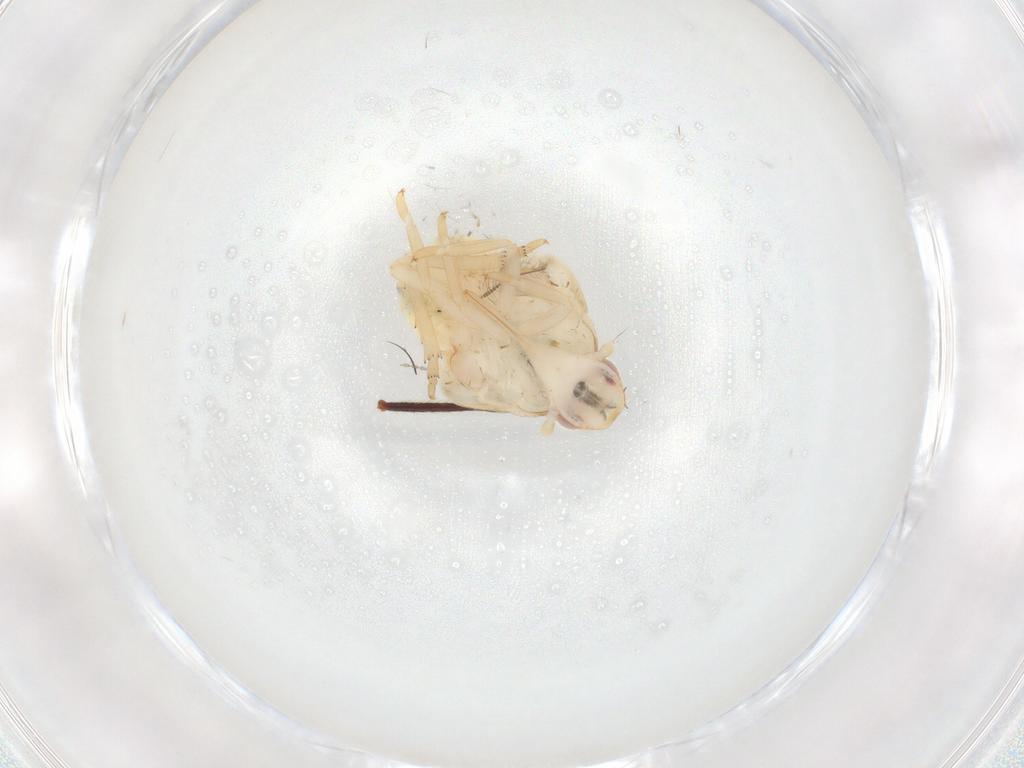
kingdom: Animalia
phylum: Arthropoda
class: Insecta
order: Hemiptera
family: Flatidae
